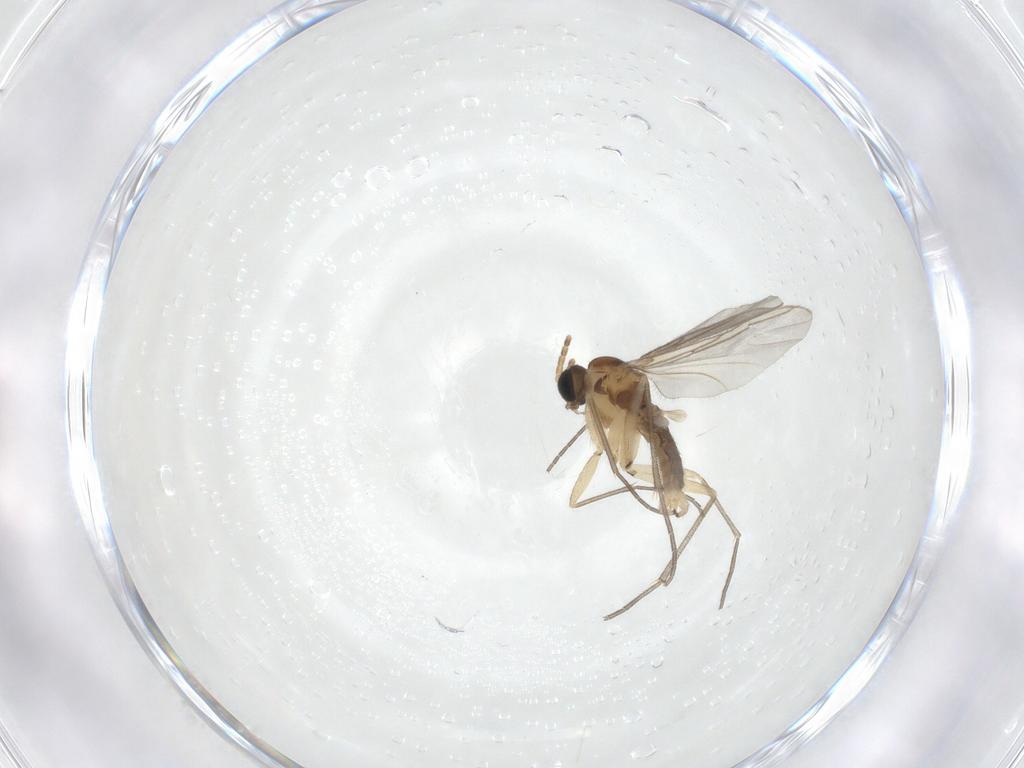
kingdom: Animalia
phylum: Arthropoda
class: Insecta
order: Diptera
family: Sciaridae
